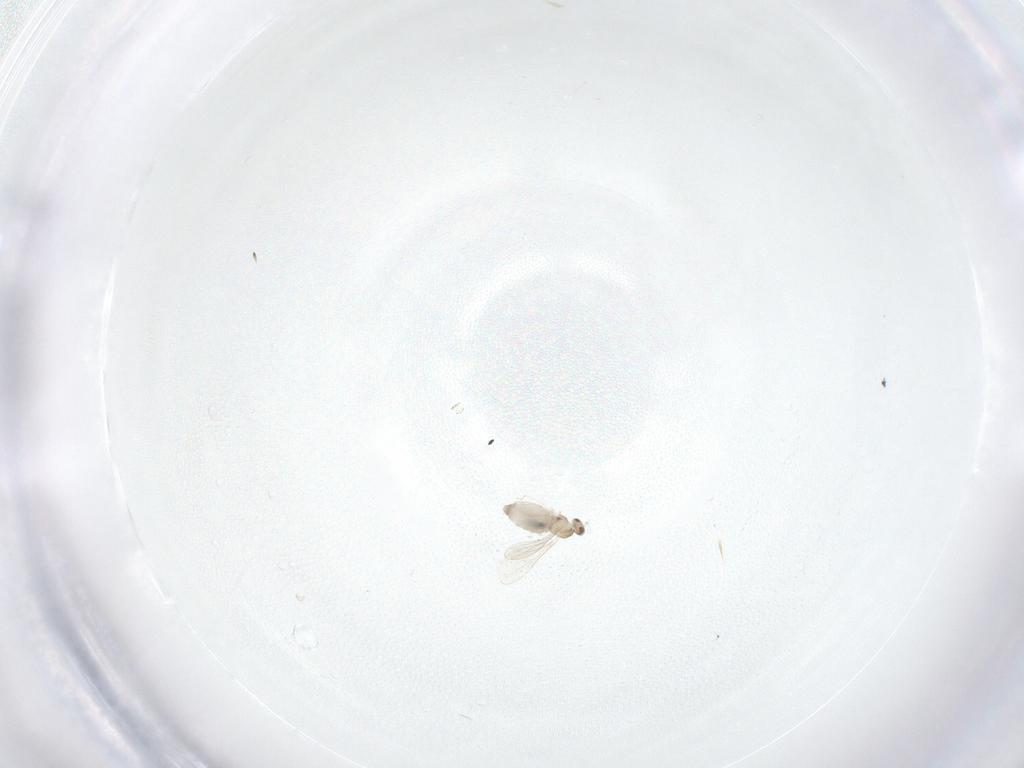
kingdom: Animalia
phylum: Arthropoda
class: Insecta
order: Diptera
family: Cecidomyiidae
